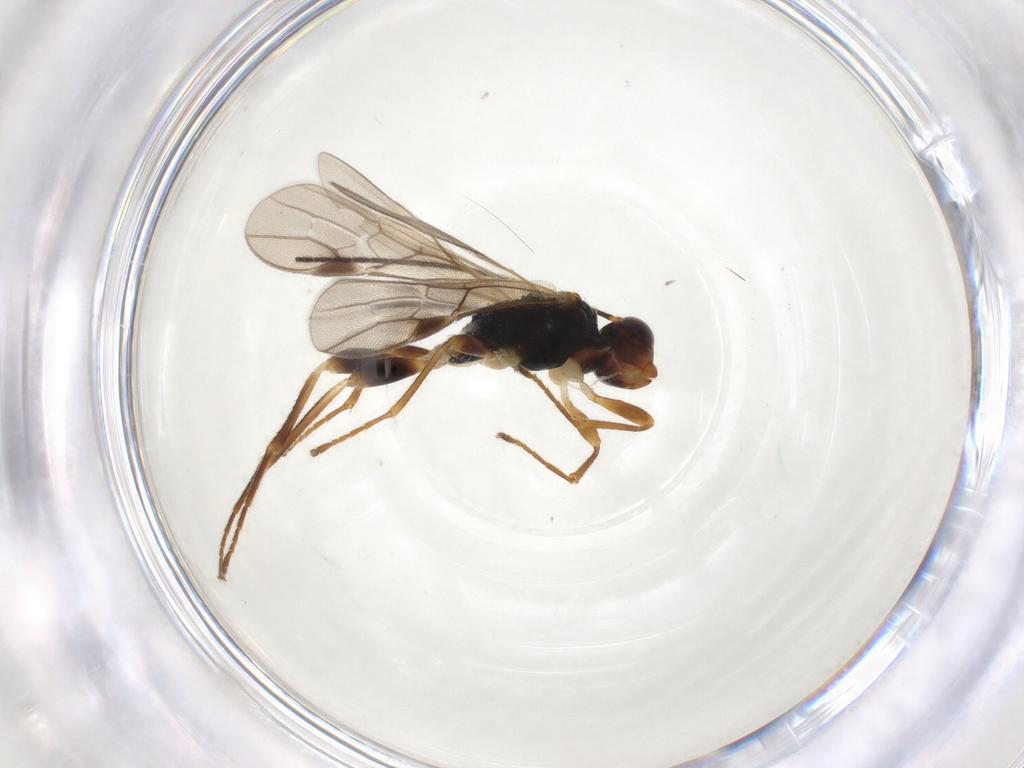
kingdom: Animalia
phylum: Arthropoda
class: Insecta
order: Hymenoptera
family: Braconidae
